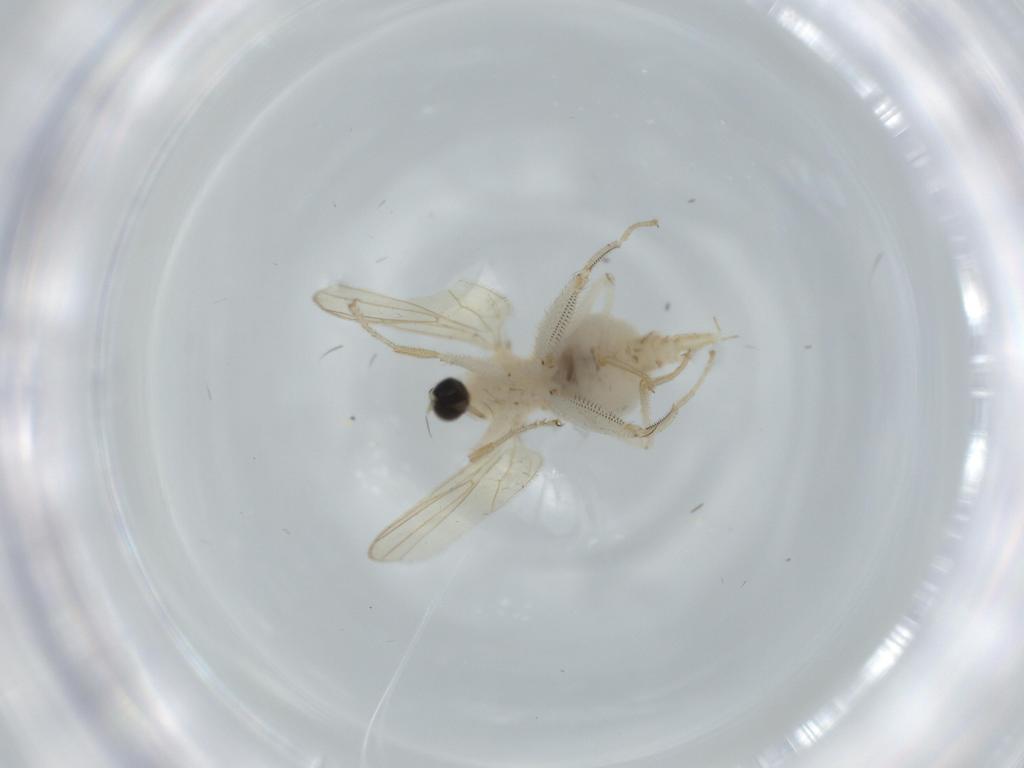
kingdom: Animalia
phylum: Arthropoda
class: Insecta
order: Diptera
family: Hybotidae
